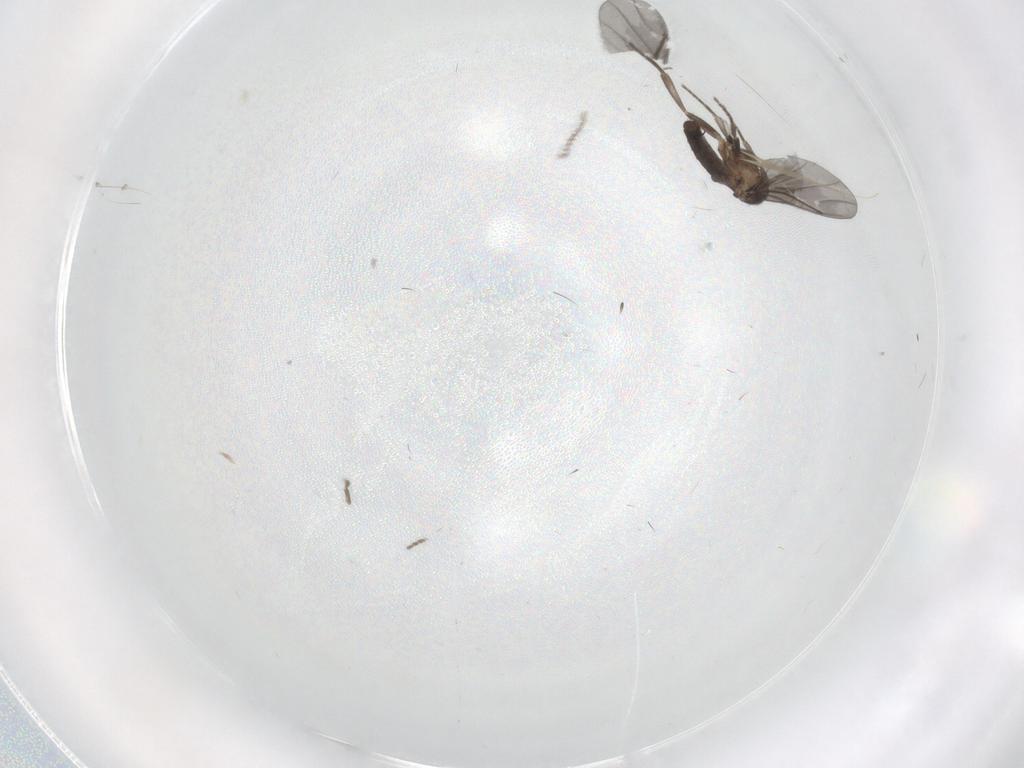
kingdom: Animalia
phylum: Arthropoda
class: Insecta
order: Diptera
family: Phoridae
